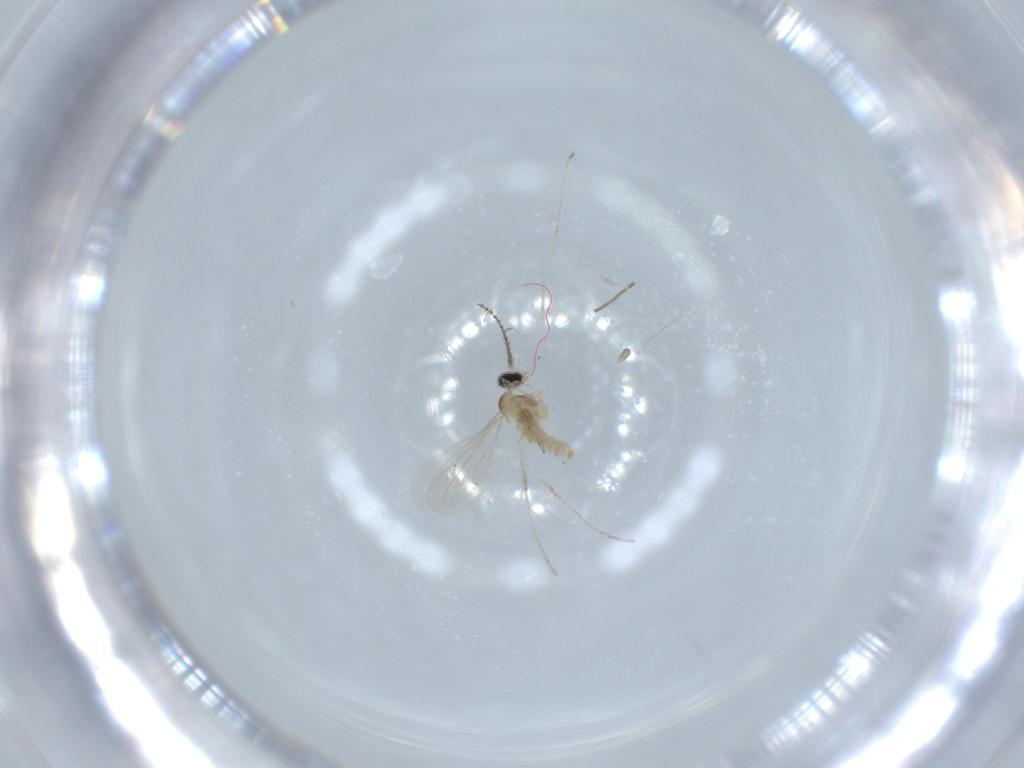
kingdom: Animalia
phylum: Arthropoda
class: Insecta
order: Diptera
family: Cecidomyiidae
